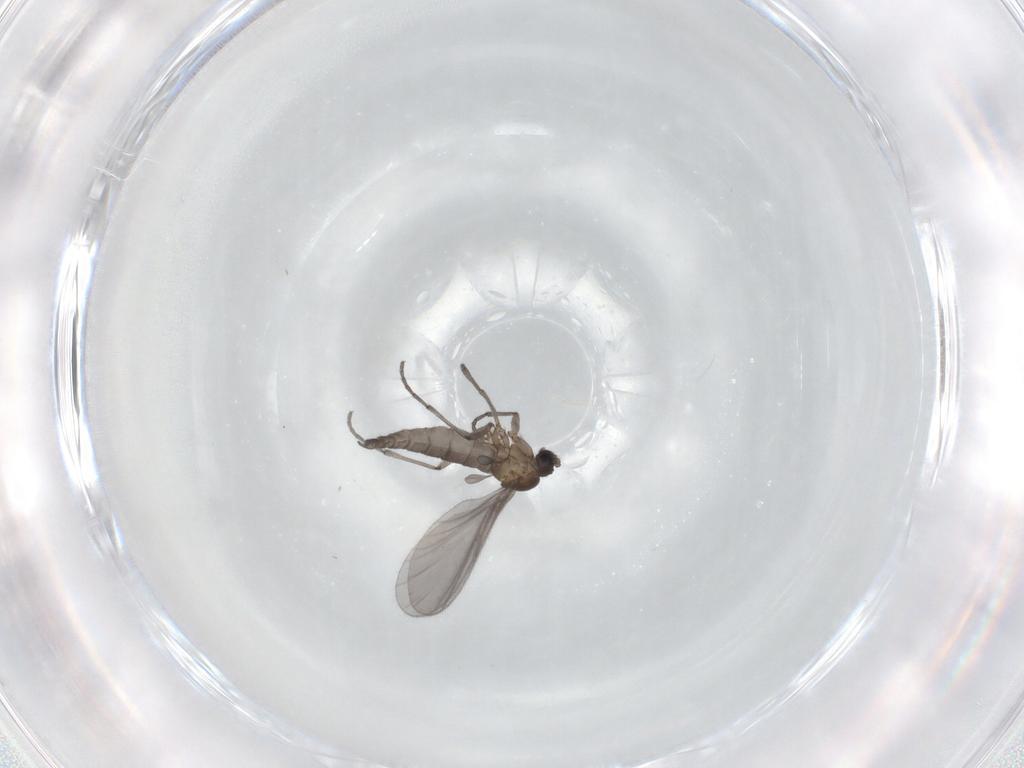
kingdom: Animalia
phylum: Arthropoda
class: Insecta
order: Diptera
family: Sciaridae
